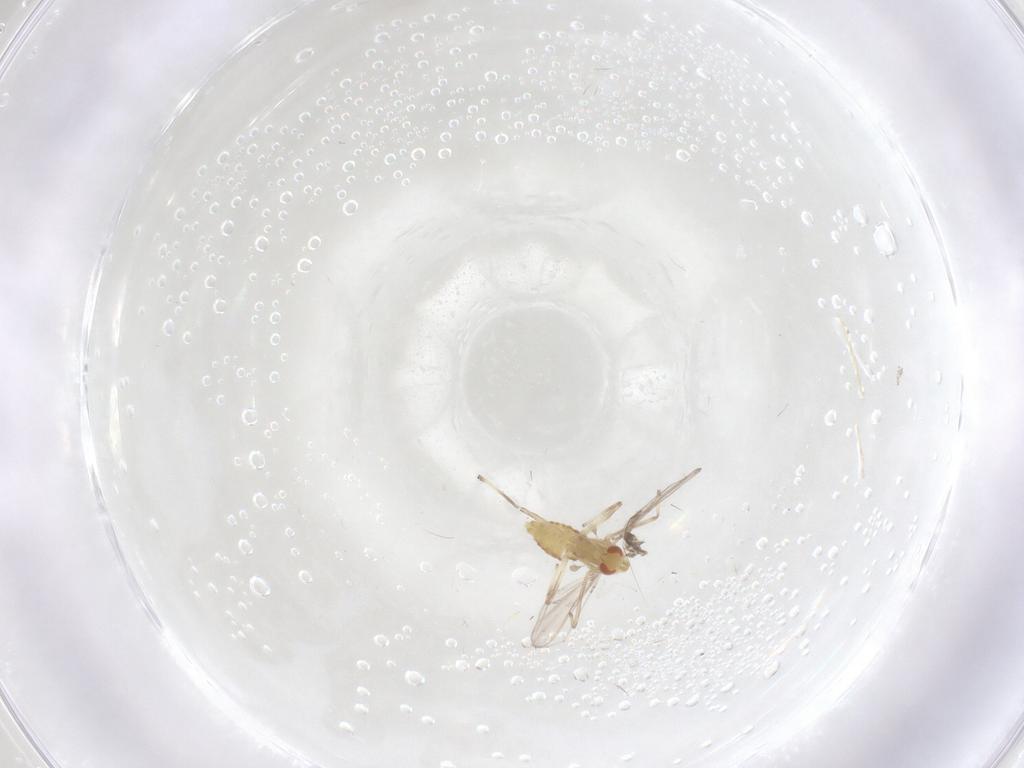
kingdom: Animalia
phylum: Arthropoda
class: Insecta
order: Diptera
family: Chironomidae
